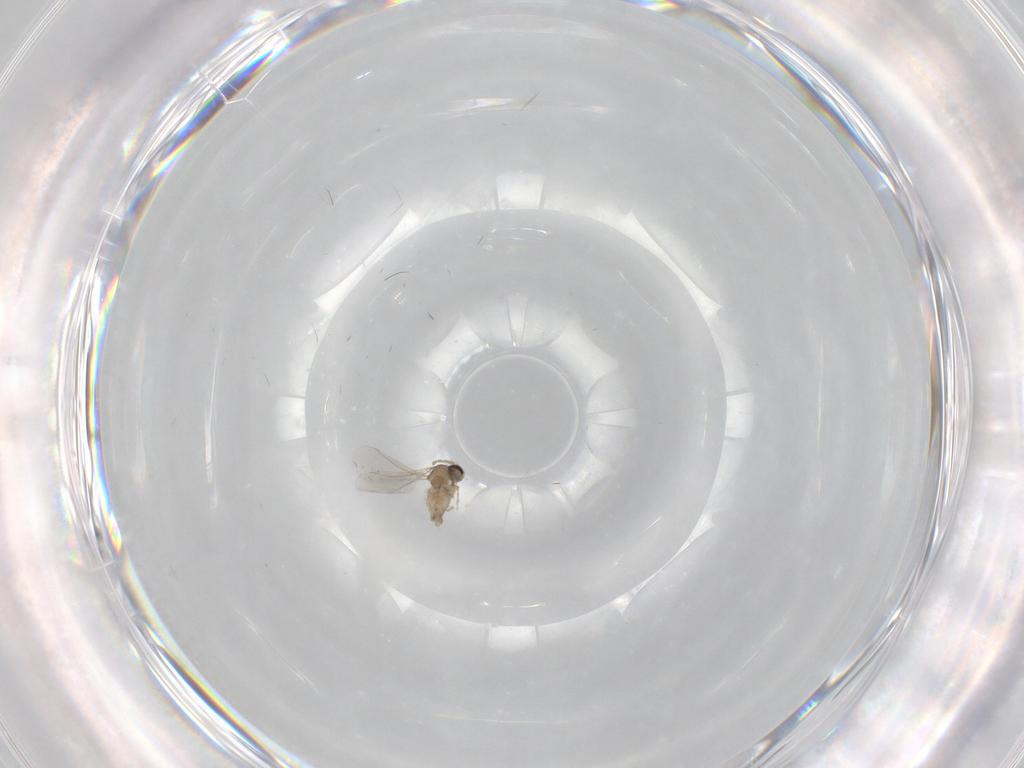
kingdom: Animalia
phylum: Arthropoda
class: Insecta
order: Diptera
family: Cecidomyiidae
